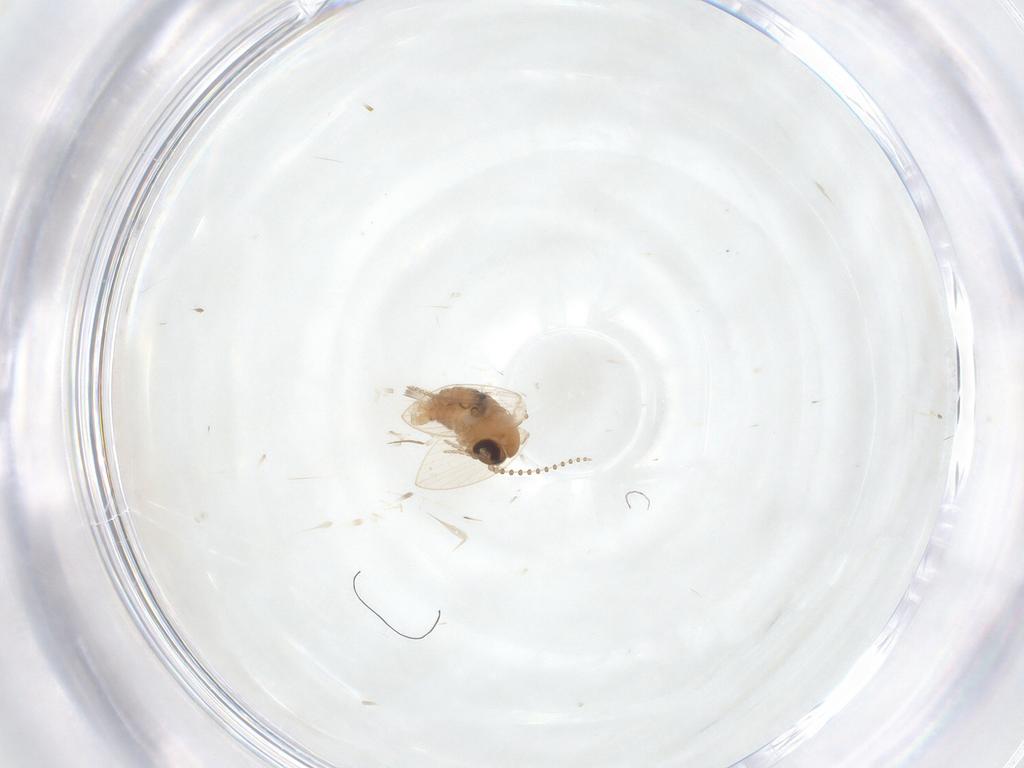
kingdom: Animalia
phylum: Arthropoda
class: Insecta
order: Diptera
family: Psychodidae
